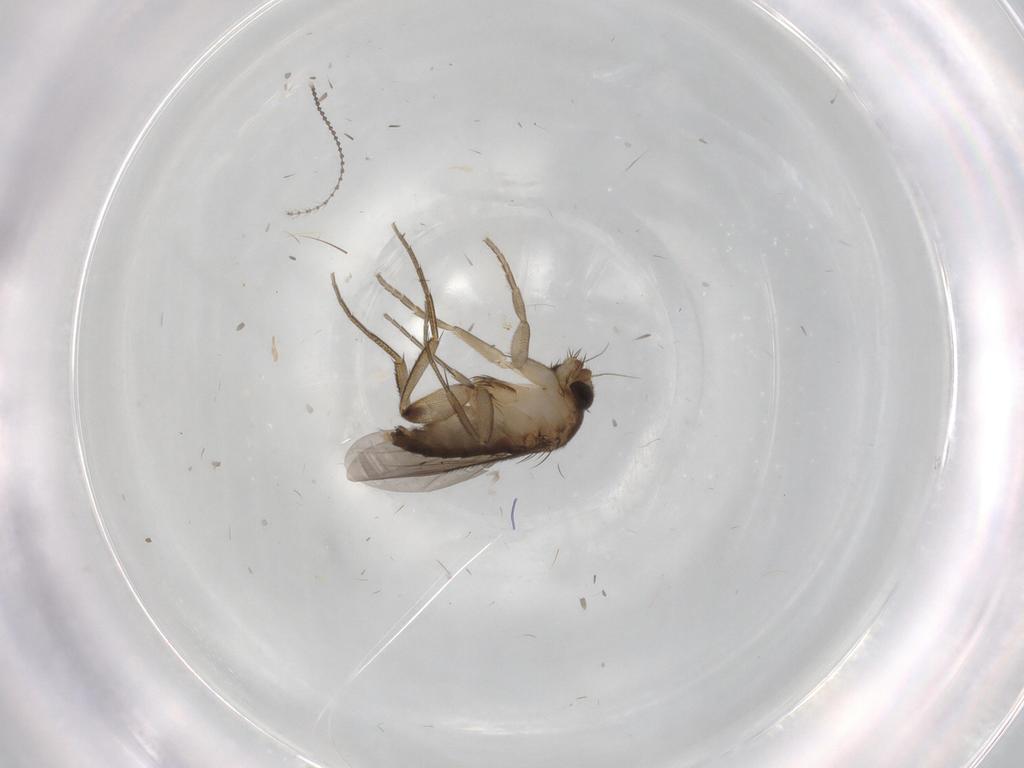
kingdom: Animalia
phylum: Arthropoda
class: Insecta
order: Diptera
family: Phoridae
